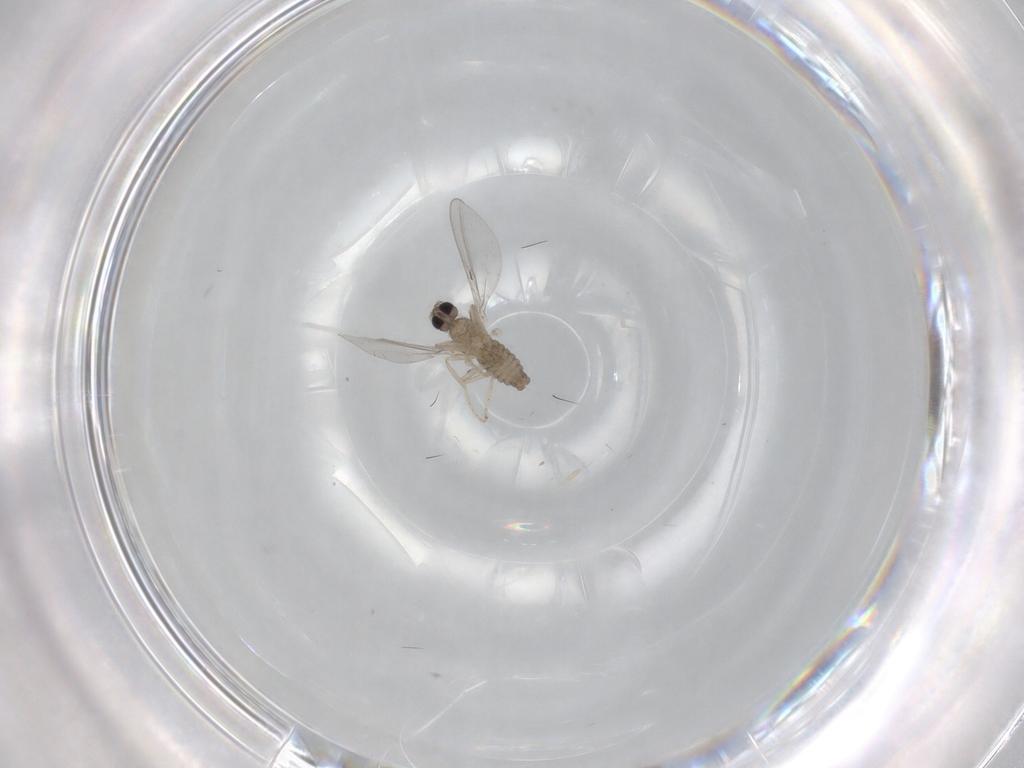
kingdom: Animalia
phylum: Arthropoda
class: Insecta
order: Diptera
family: Cecidomyiidae
